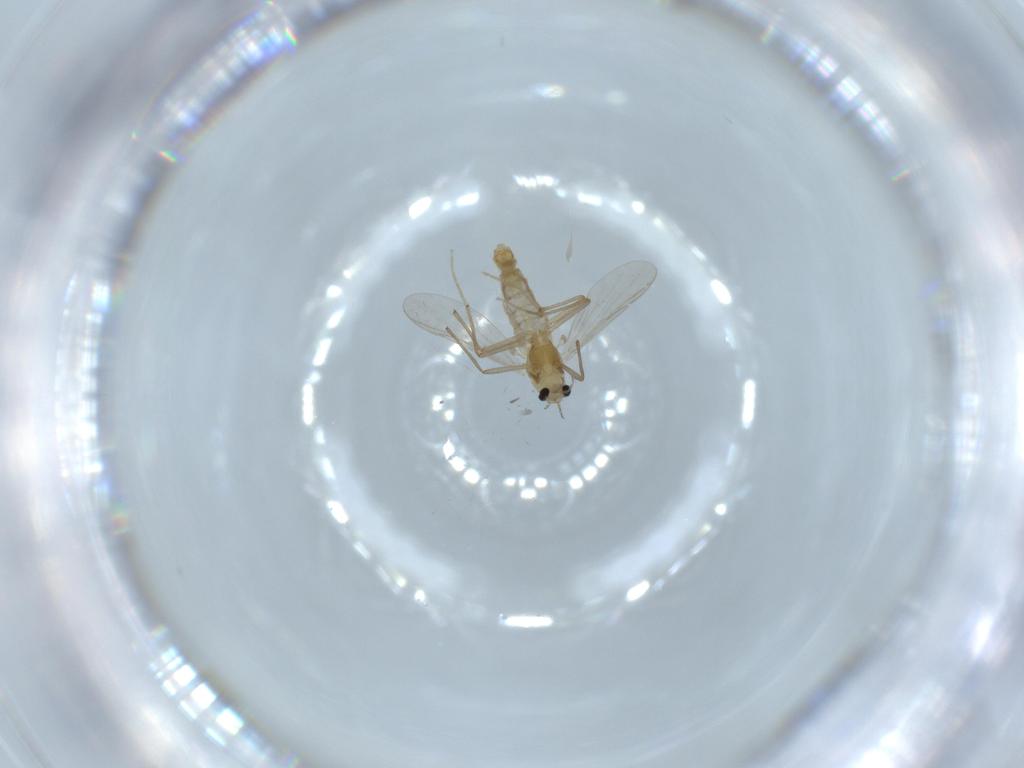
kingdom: Animalia
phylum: Arthropoda
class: Insecta
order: Diptera
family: Chironomidae
